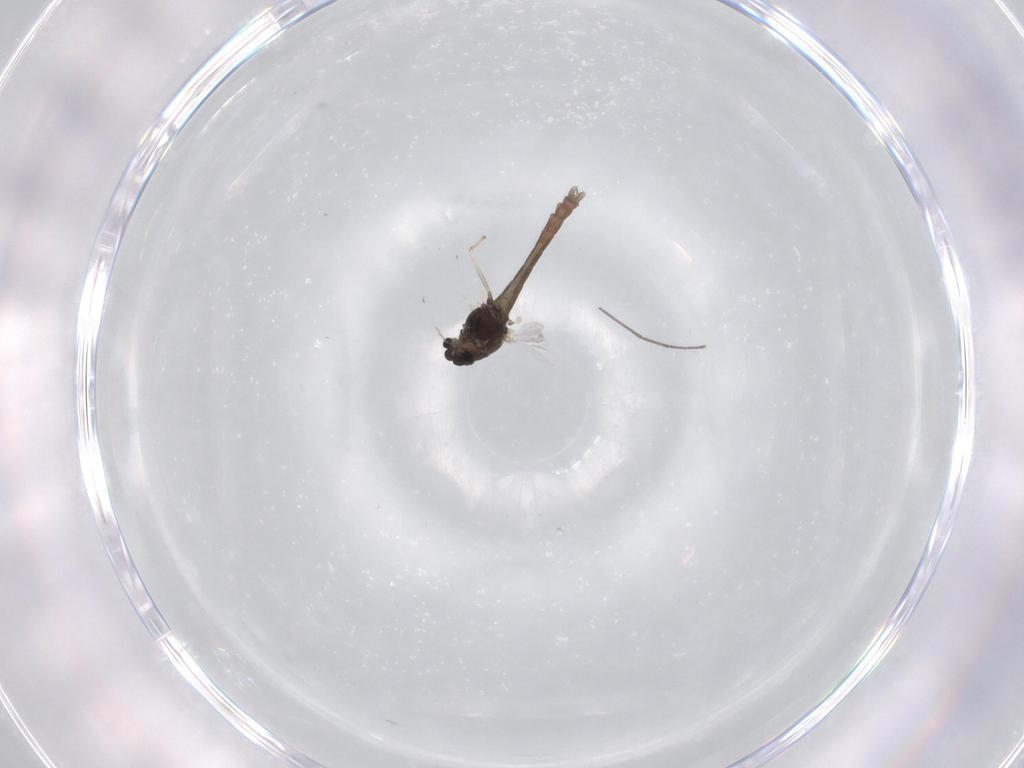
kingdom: Animalia
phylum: Arthropoda
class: Insecta
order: Diptera
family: Chironomidae
